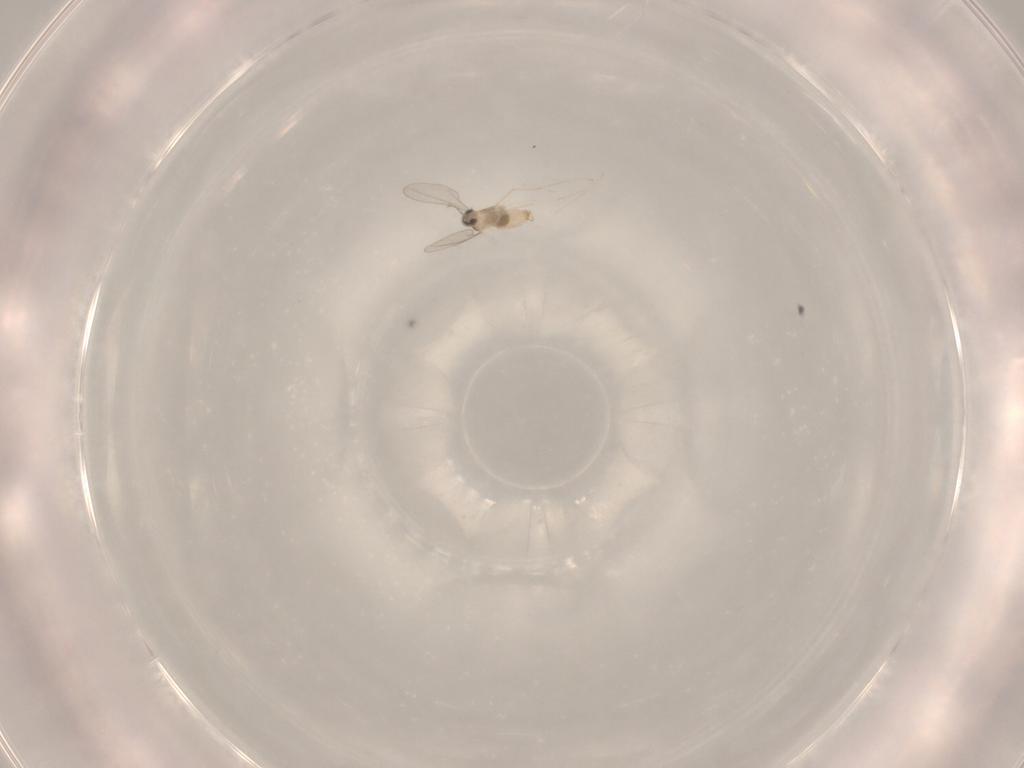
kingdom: Animalia
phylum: Arthropoda
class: Insecta
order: Diptera
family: Cecidomyiidae
